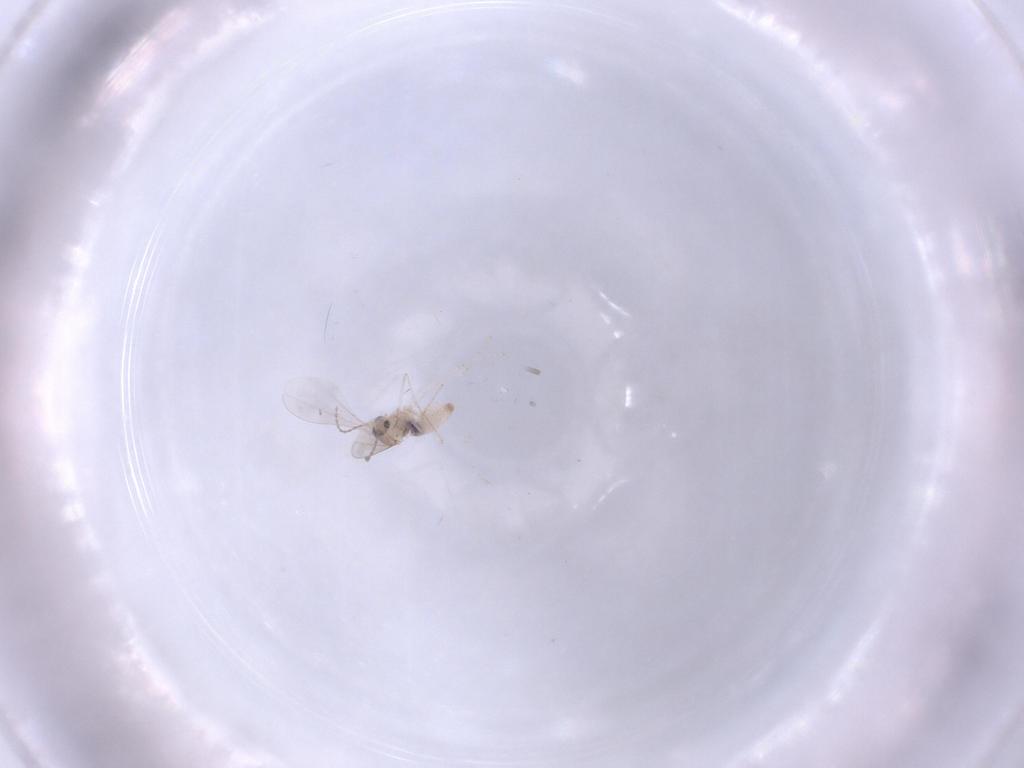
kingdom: Animalia
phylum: Arthropoda
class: Insecta
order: Diptera
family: Cecidomyiidae
